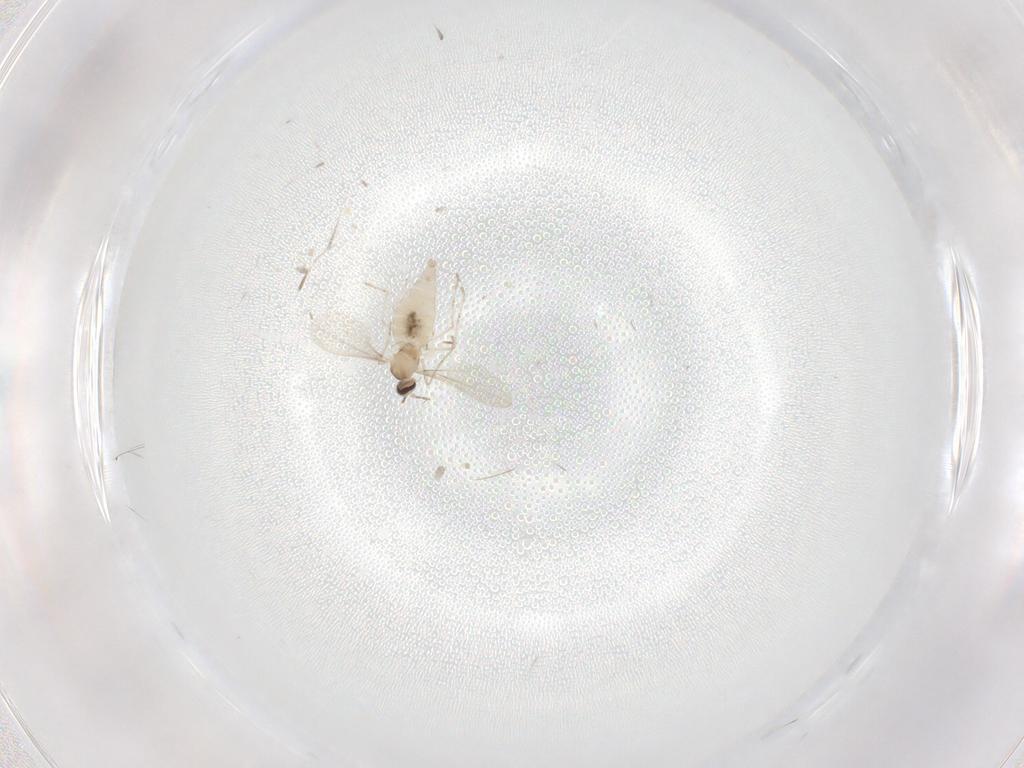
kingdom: Animalia
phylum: Arthropoda
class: Insecta
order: Diptera
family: Cecidomyiidae
